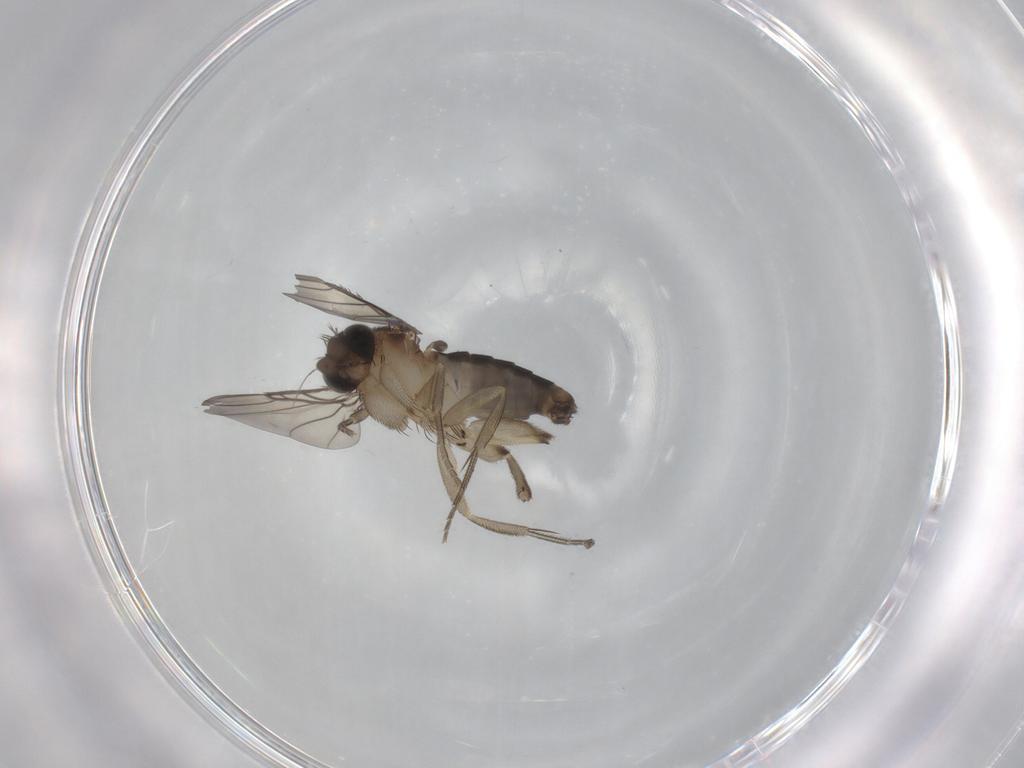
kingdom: Animalia
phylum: Arthropoda
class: Insecta
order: Diptera
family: Phoridae
